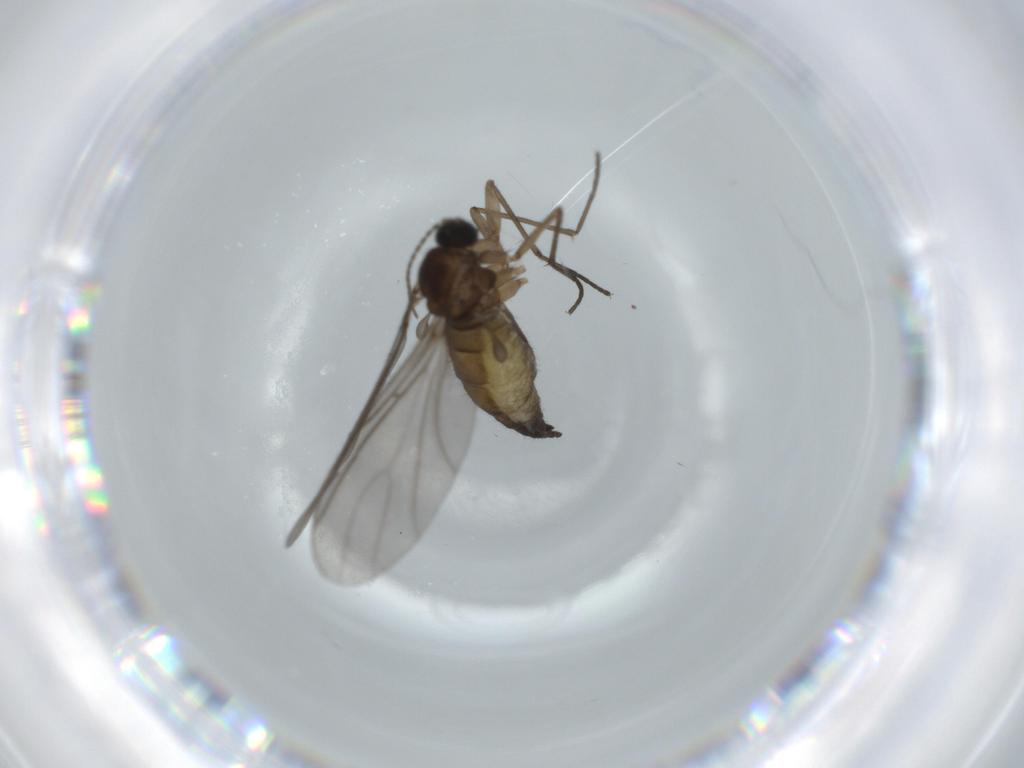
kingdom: Animalia
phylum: Arthropoda
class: Insecta
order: Diptera
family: Sciaridae
